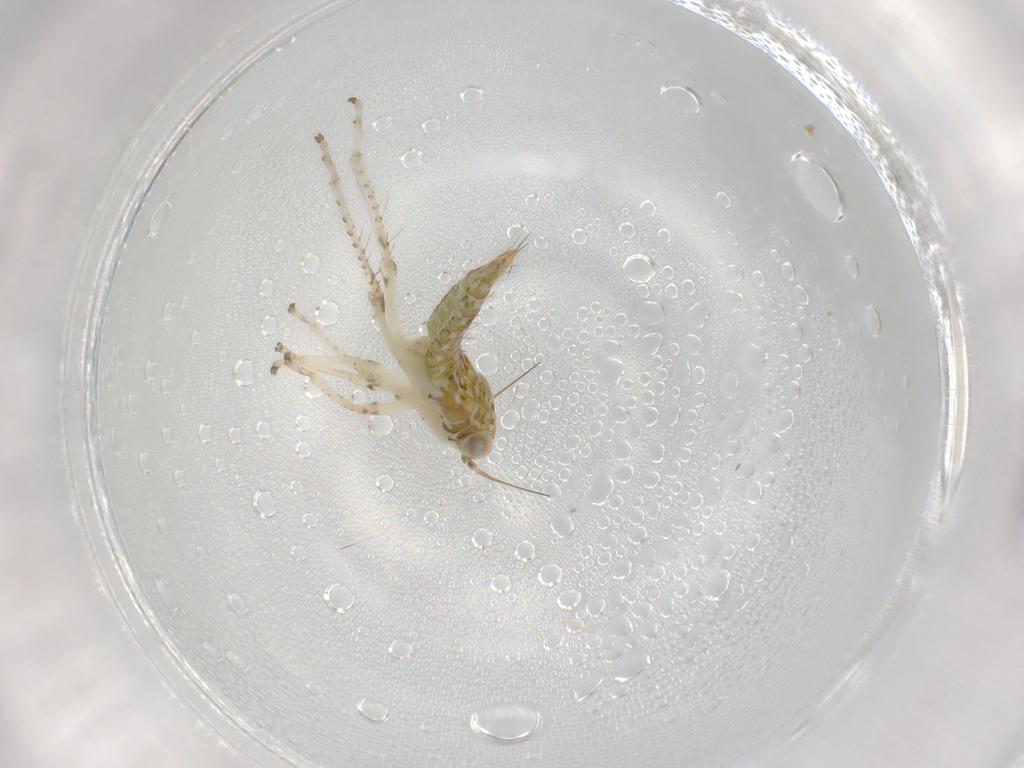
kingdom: Animalia
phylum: Arthropoda
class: Insecta
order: Hemiptera
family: Cicadellidae
